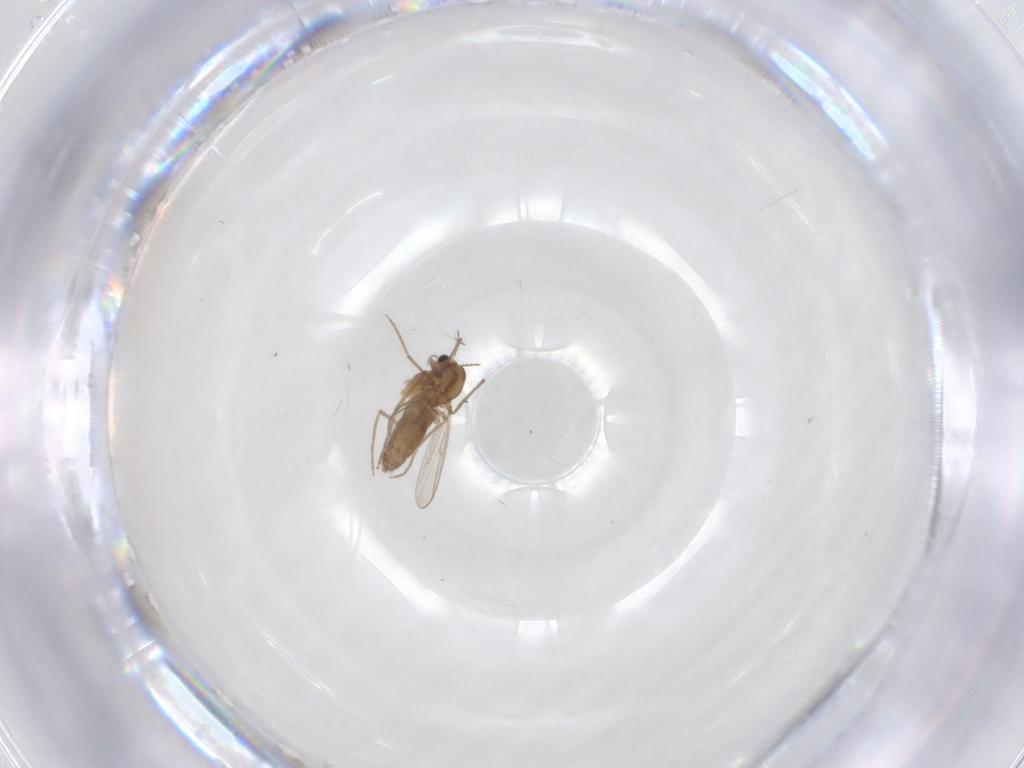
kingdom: Animalia
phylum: Arthropoda
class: Insecta
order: Diptera
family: Chironomidae
